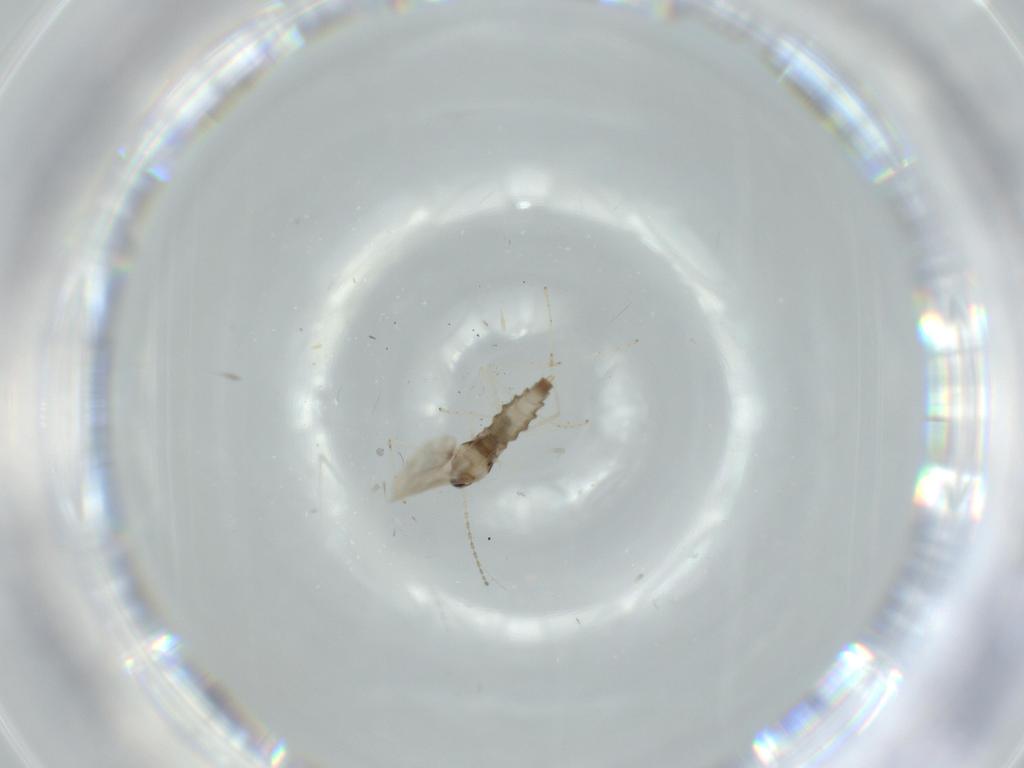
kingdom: Animalia
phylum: Arthropoda
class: Insecta
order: Diptera
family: Cecidomyiidae
